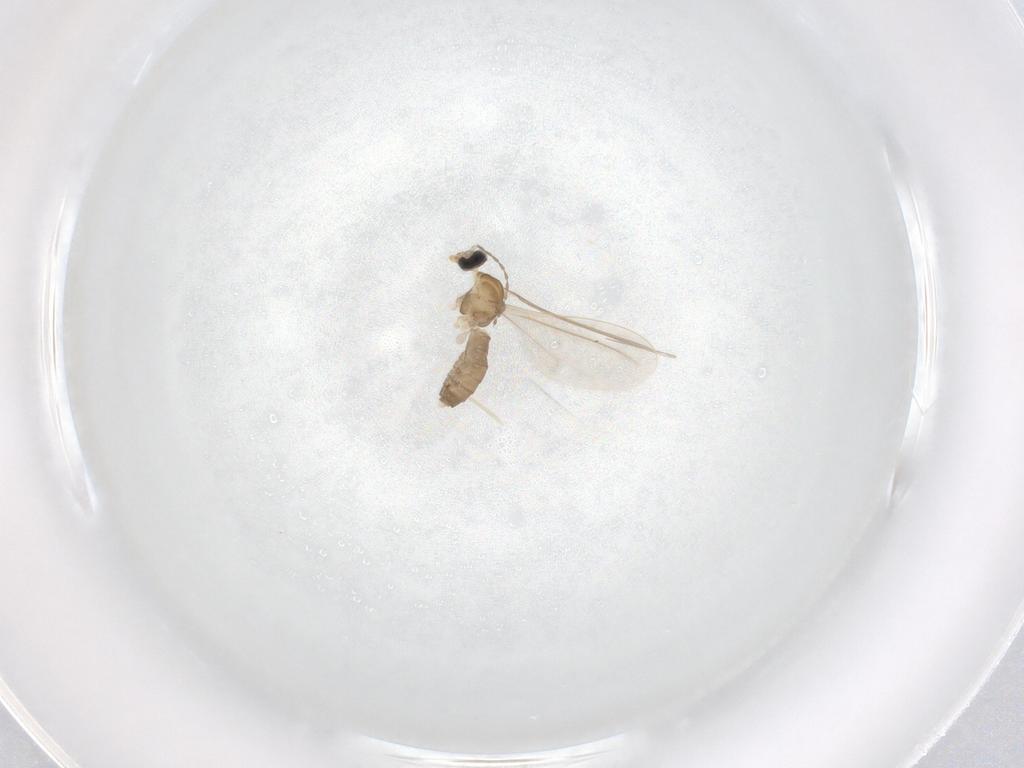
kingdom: Animalia
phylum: Arthropoda
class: Insecta
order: Diptera
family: Cecidomyiidae
